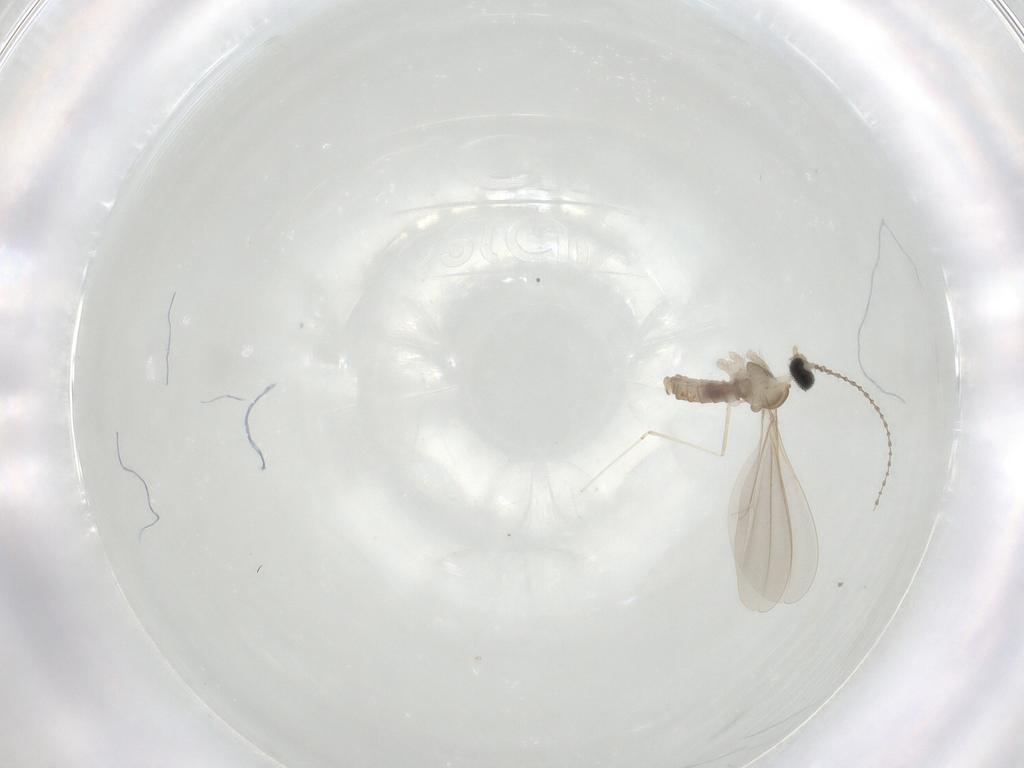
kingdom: Animalia
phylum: Arthropoda
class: Insecta
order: Diptera
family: Cecidomyiidae
